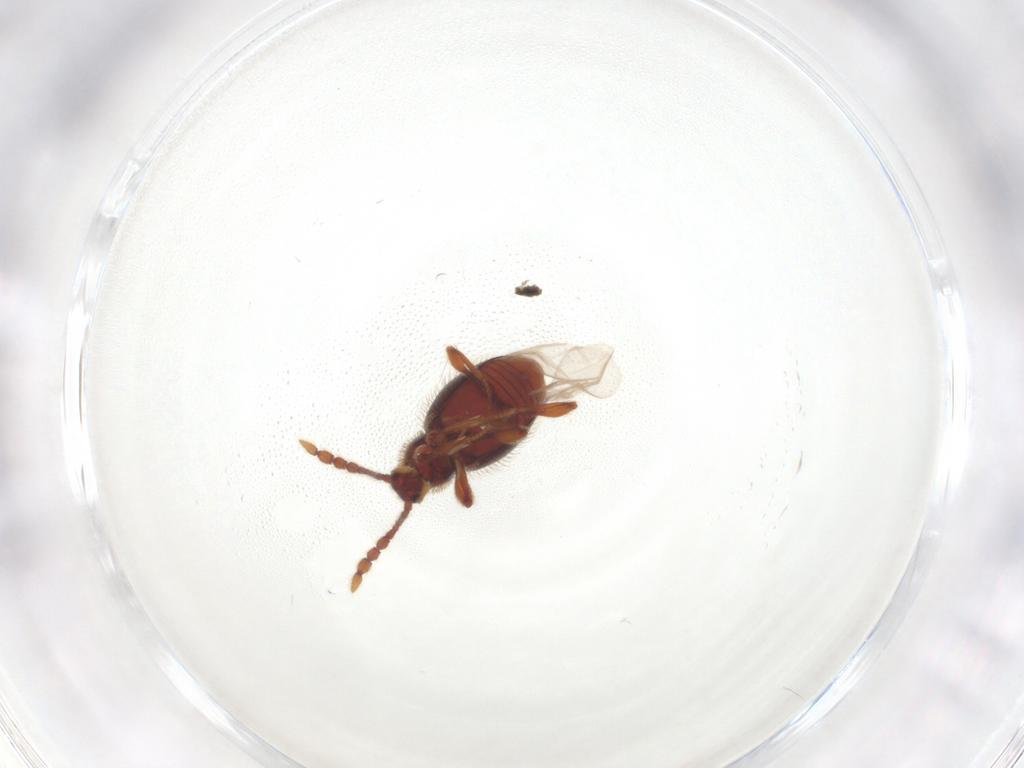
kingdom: Animalia
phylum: Arthropoda
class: Insecta
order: Coleoptera
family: Ptilodactylidae
